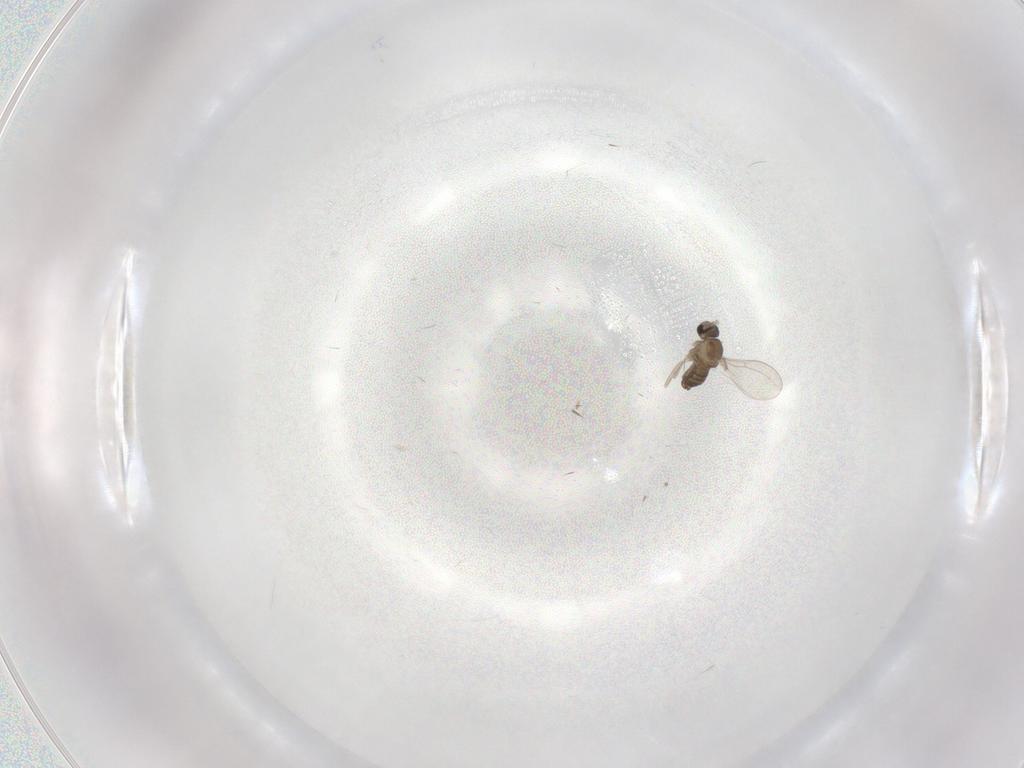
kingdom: Animalia
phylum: Arthropoda
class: Insecta
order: Diptera
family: Cecidomyiidae
